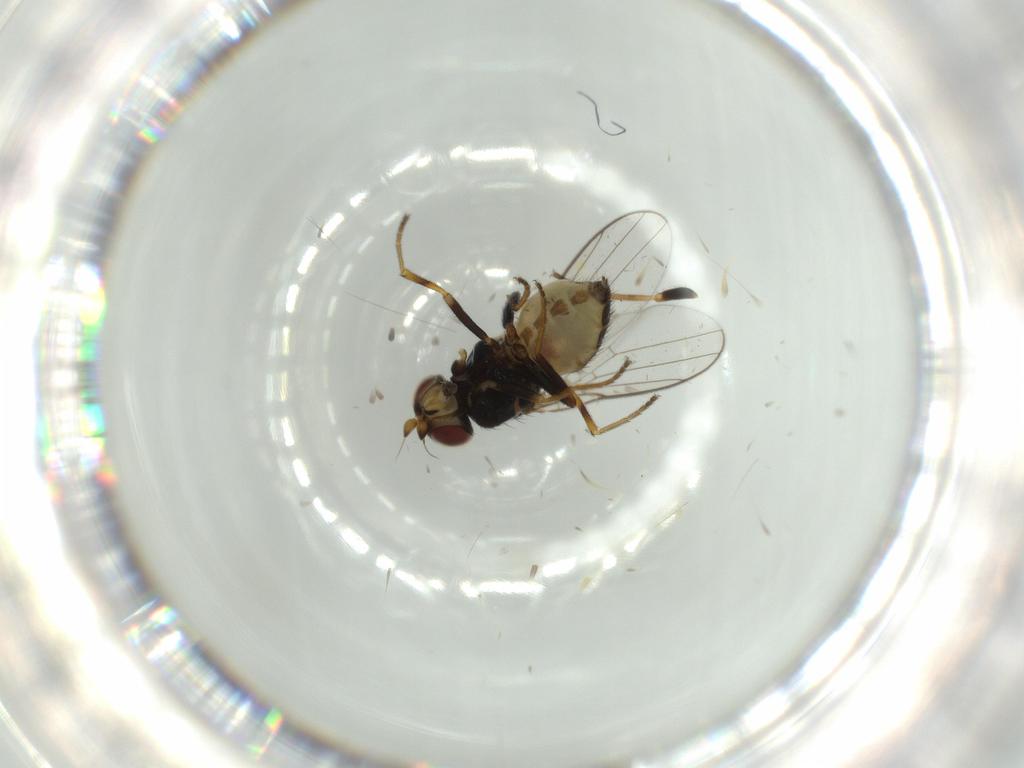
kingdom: Animalia
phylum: Arthropoda
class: Insecta
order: Diptera
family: Chloropidae
